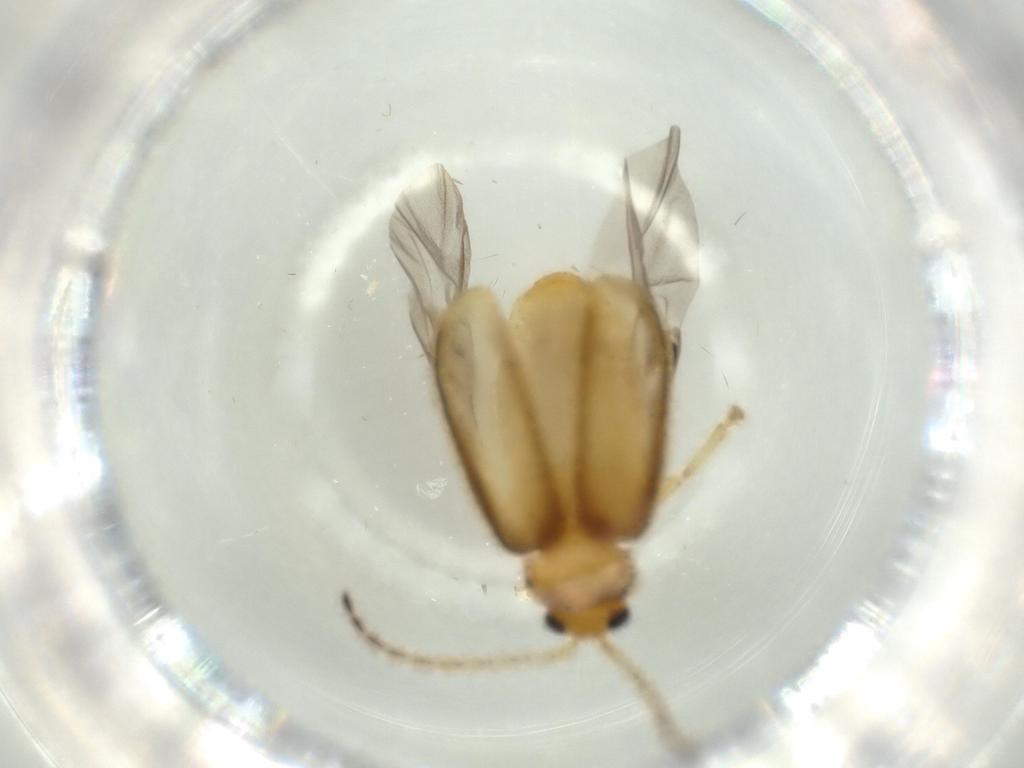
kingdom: Animalia
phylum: Arthropoda
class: Insecta
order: Coleoptera
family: Chrysomelidae
